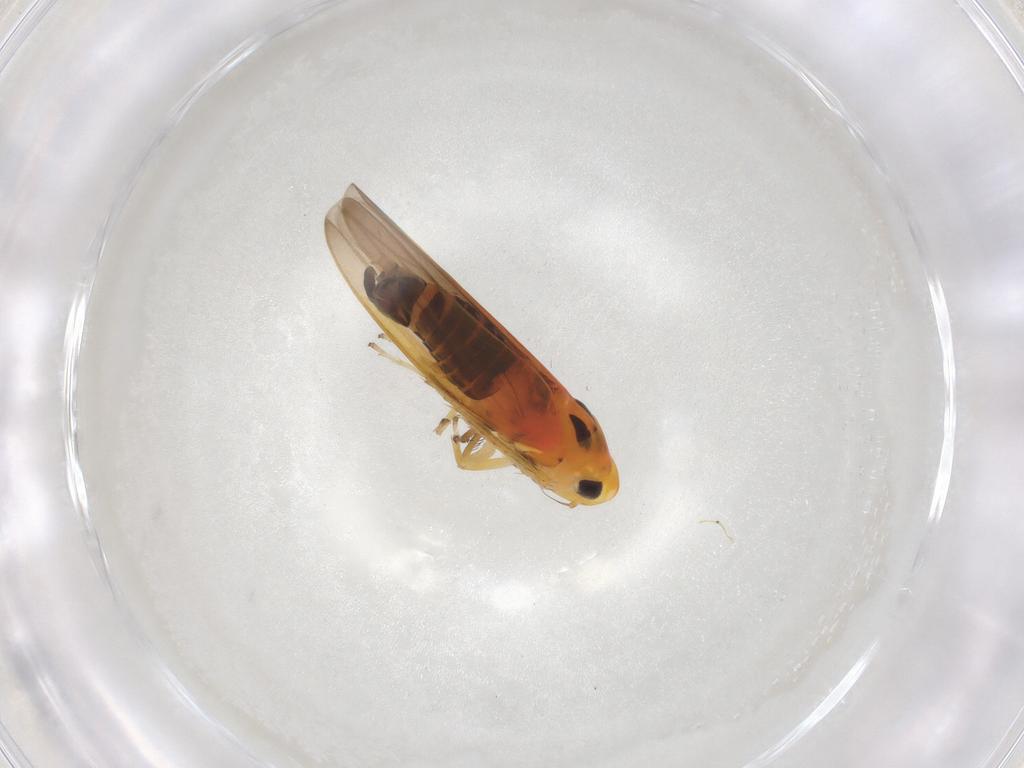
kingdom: Animalia
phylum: Arthropoda
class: Insecta
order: Hemiptera
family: Cicadellidae
